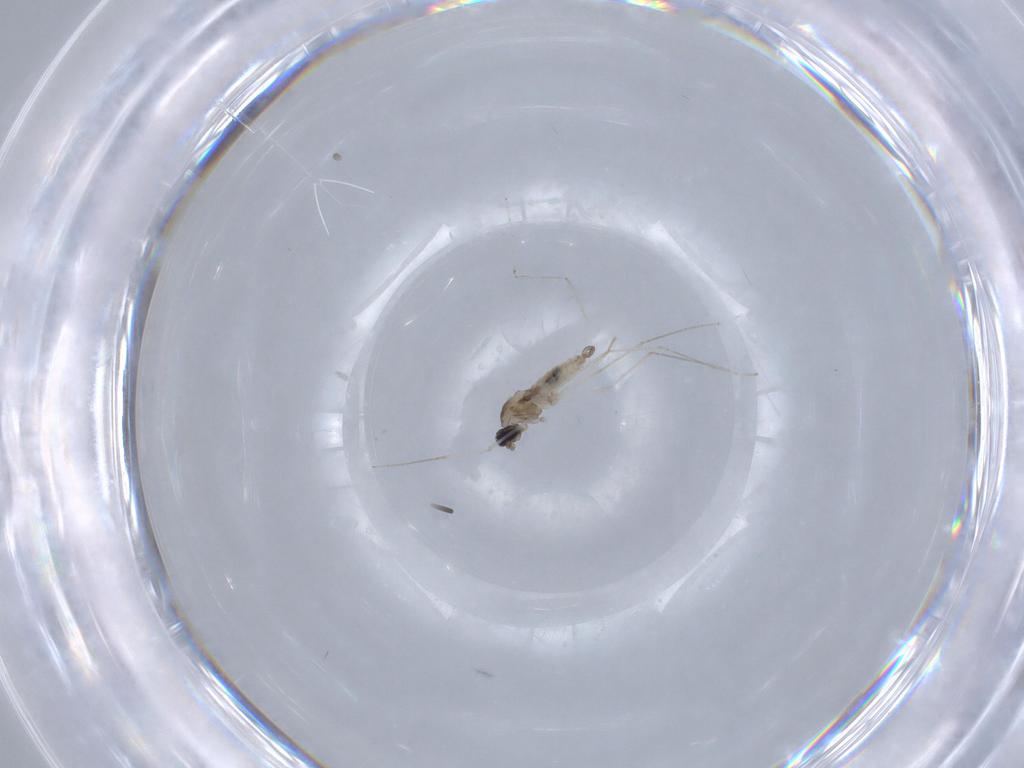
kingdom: Animalia
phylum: Arthropoda
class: Insecta
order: Diptera
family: Cecidomyiidae
